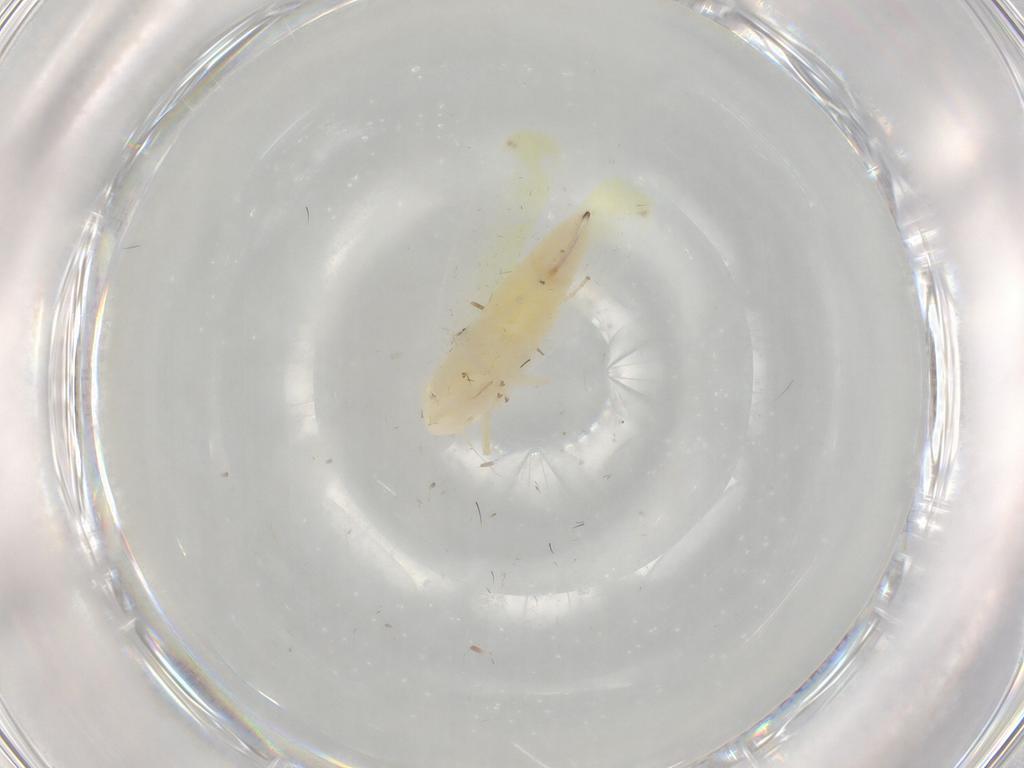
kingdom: Animalia
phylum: Arthropoda
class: Insecta
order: Hemiptera
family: Cicadellidae
